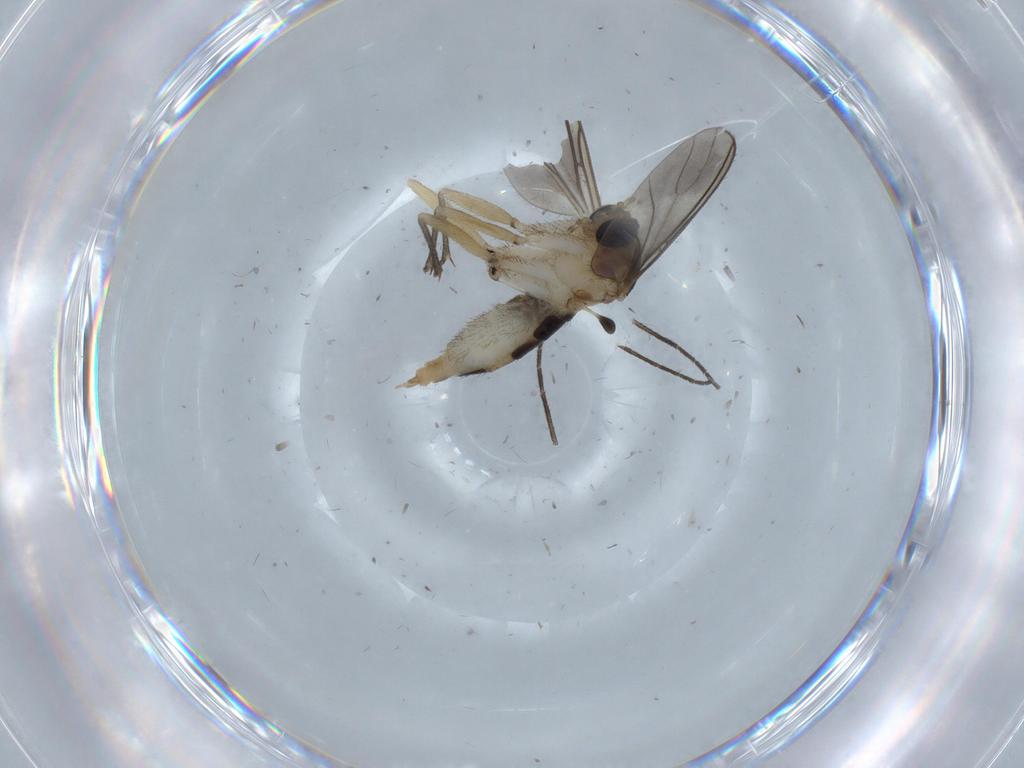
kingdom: Animalia
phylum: Arthropoda
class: Insecta
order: Diptera
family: Sciaridae
